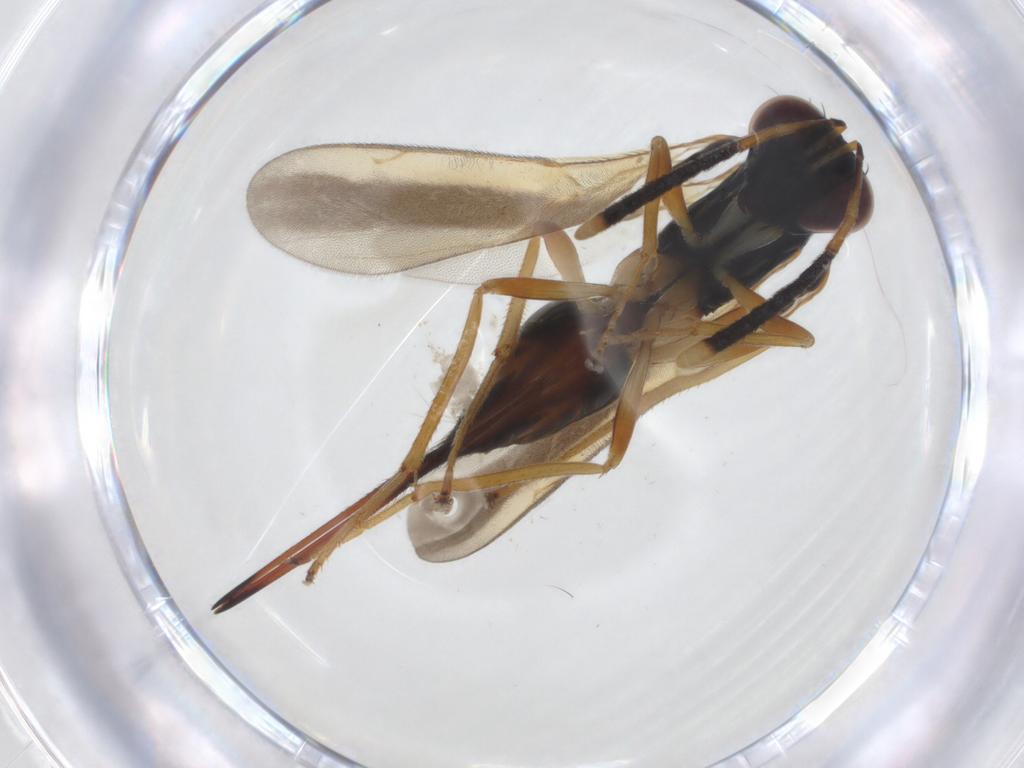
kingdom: Animalia
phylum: Arthropoda
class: Insecta
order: Hymenoptera
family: Diparidae
